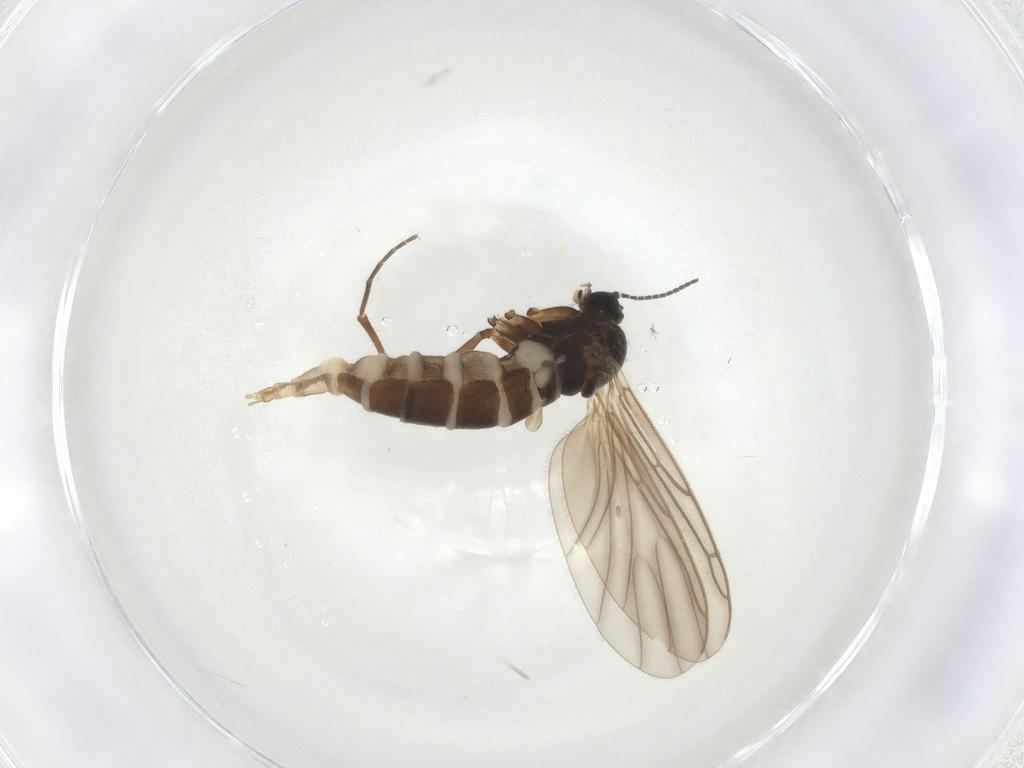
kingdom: Animalia
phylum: Arthropoda
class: Insecta
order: Diptera
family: Sciaridae
